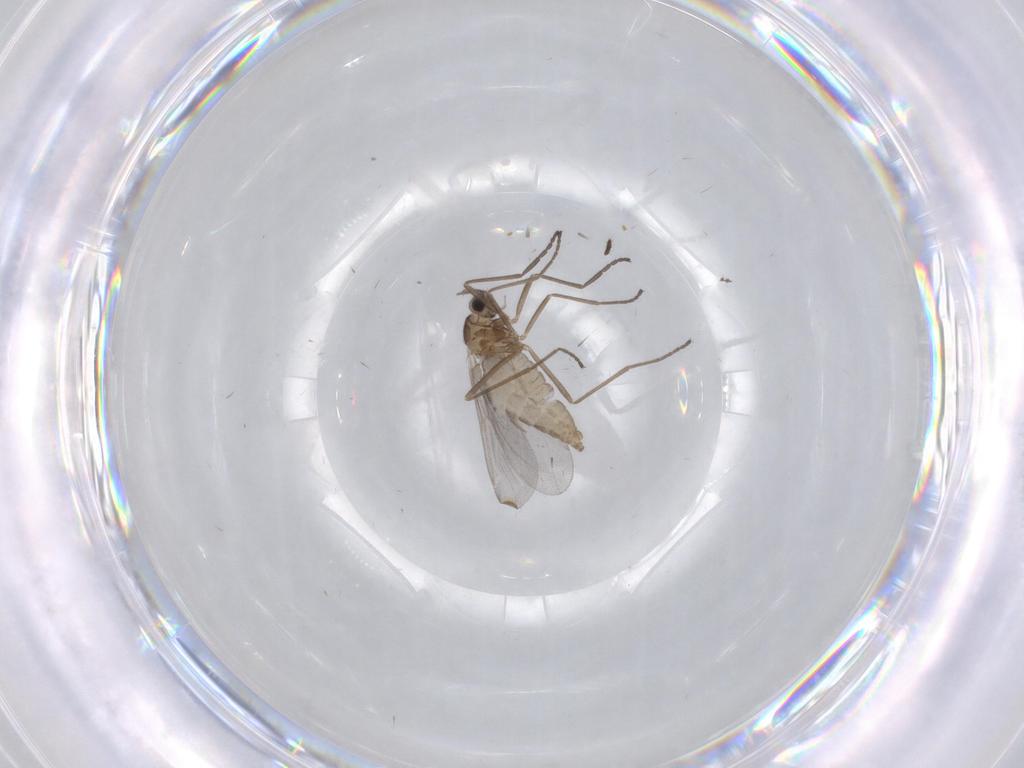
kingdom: Animalia
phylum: Arthropoda
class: Insecta
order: Diptera
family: Cecidomyiidae
